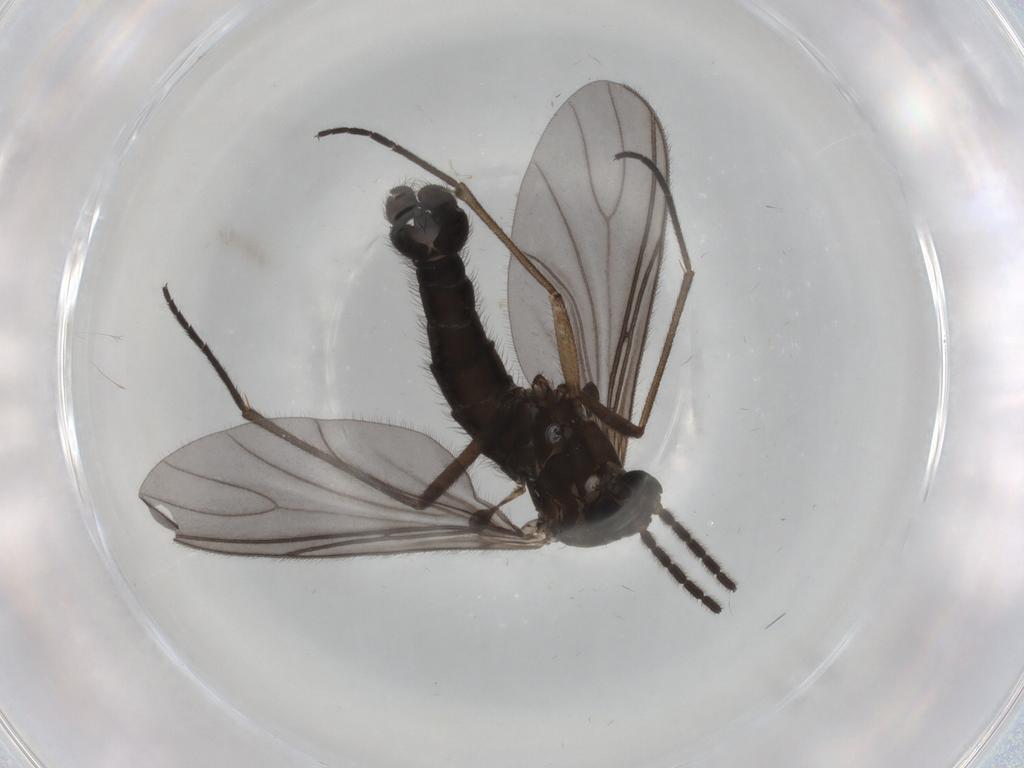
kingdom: Animalia
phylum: Arthropoda
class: Insecta
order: Diptera
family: Sciaridae
